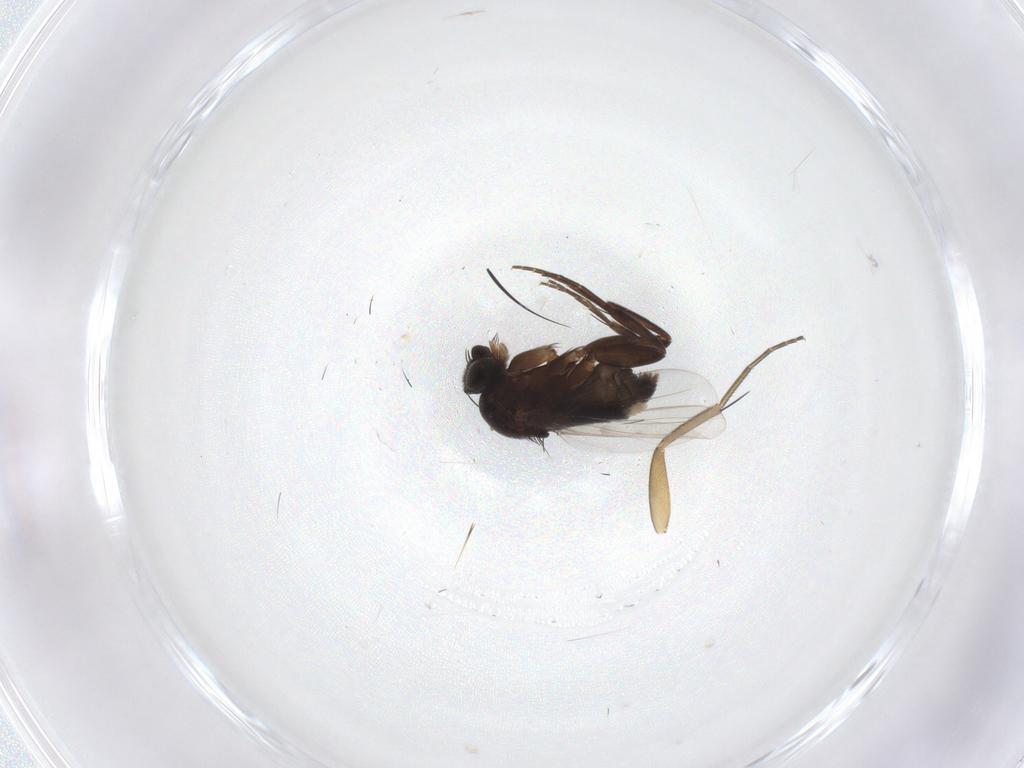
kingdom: Animalia
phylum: Arthropoda
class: Insecta
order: Diptera
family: Phoridae
